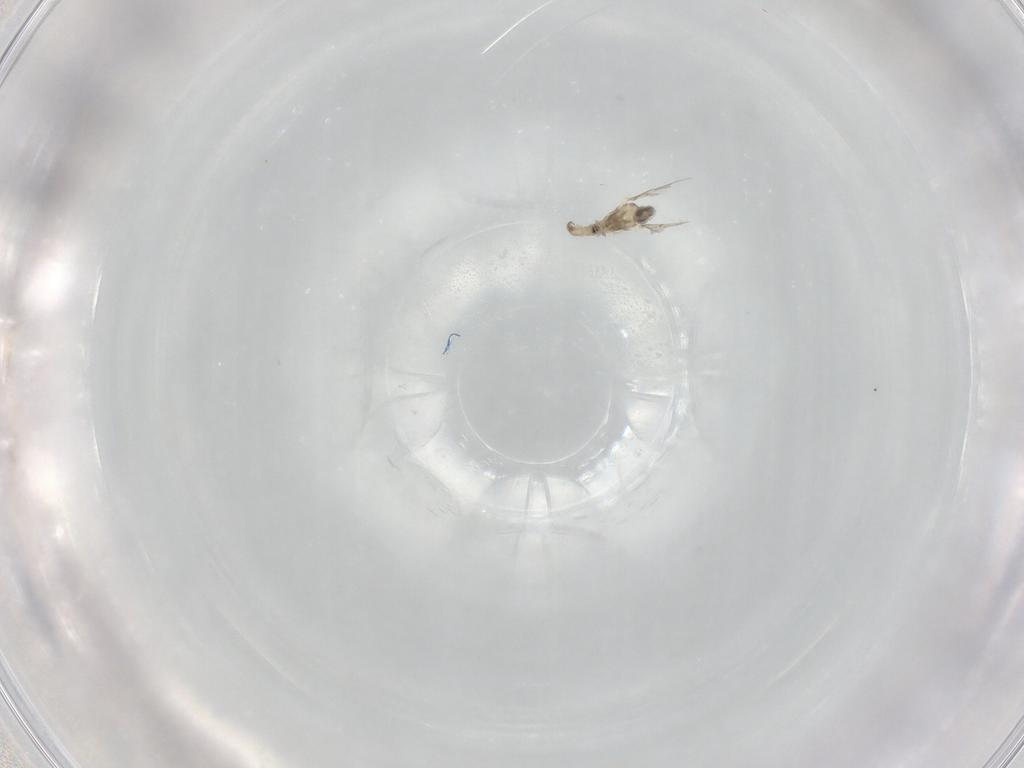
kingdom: Animalia
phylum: Arthropoda
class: Insecta
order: Diptera
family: Cecidomyiidae
